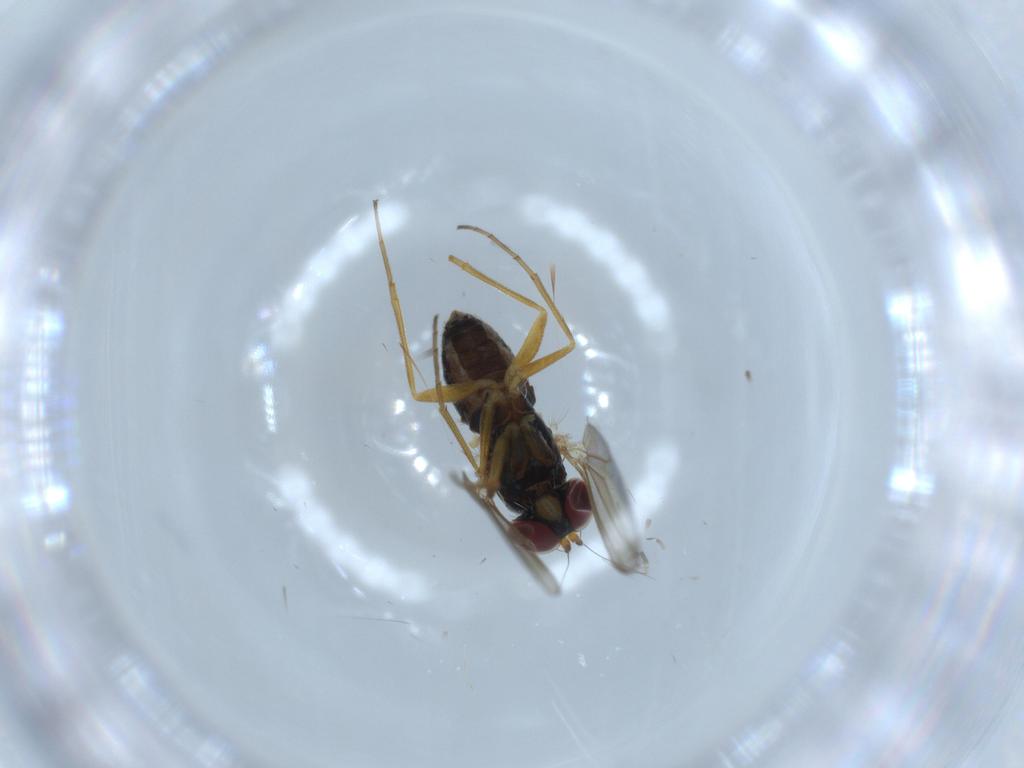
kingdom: Animalia
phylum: Arthropoda
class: Insecta
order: Diptera
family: Dolichopodidae
